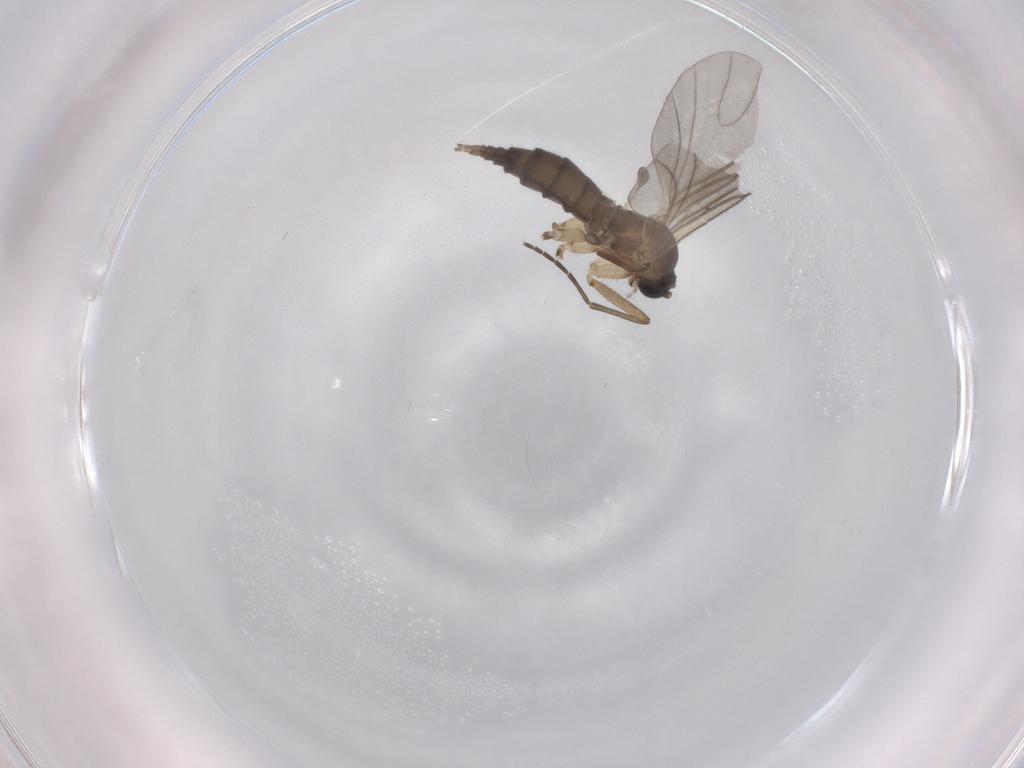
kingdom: Animalia
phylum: Arthropoda
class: Insecta
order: Diptera
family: Sciaridae
